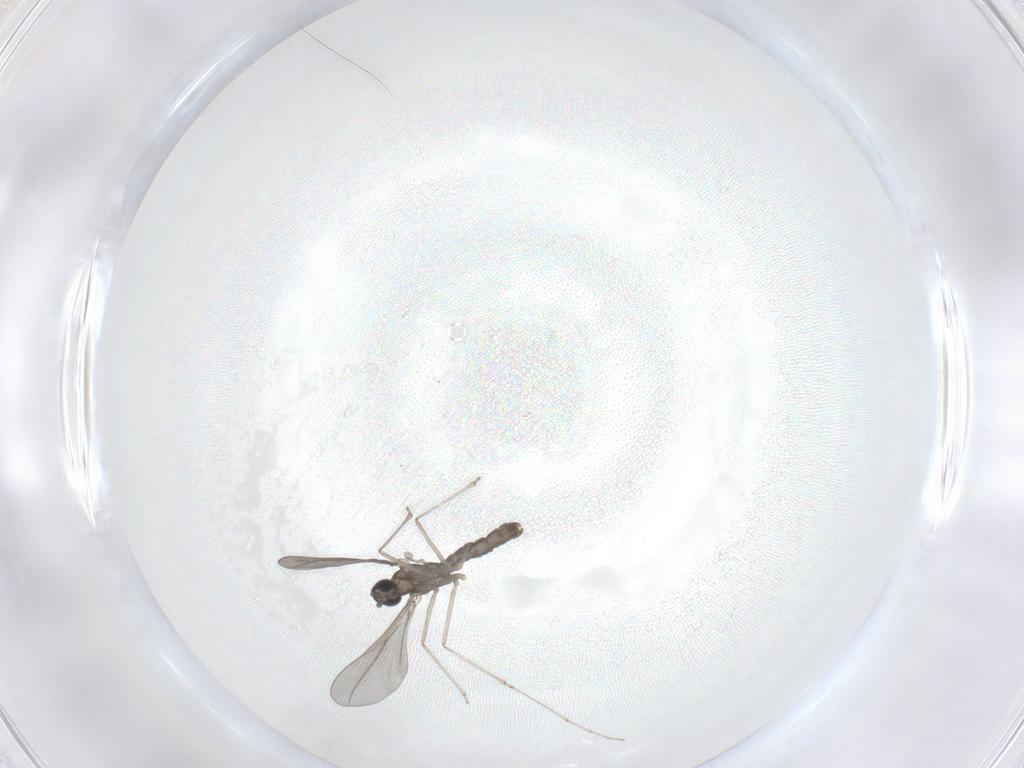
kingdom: Animalia
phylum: Arthropoda
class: Insecta
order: Diptera
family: Cecidomyiidae
